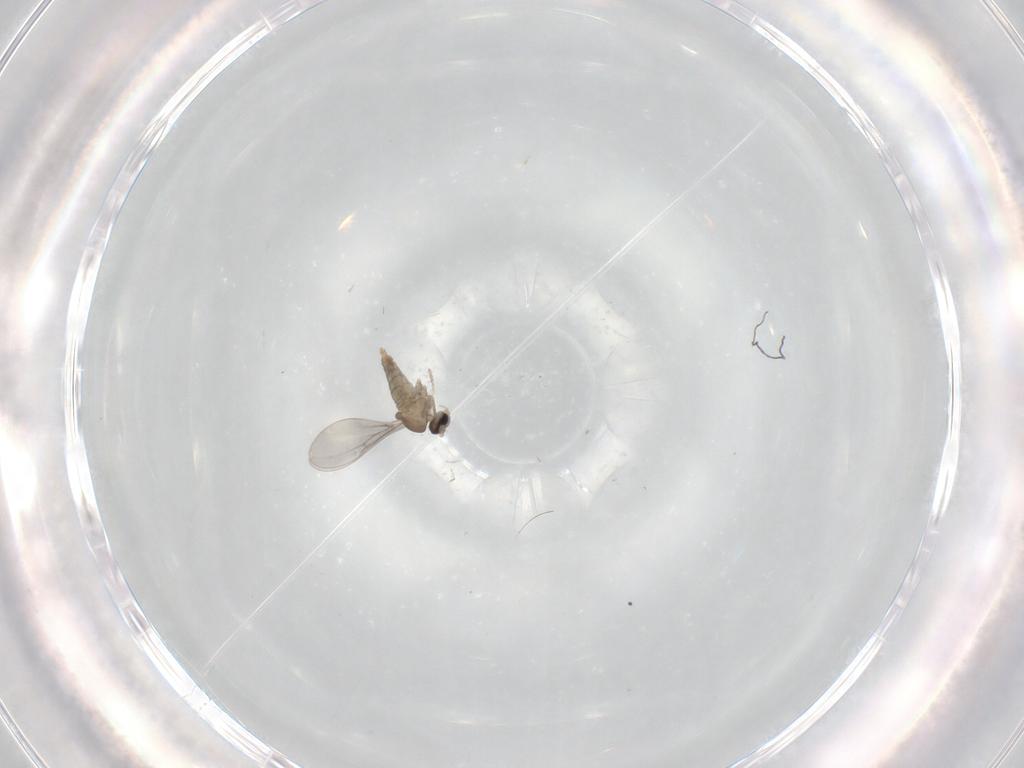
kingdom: Animalia
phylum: Arthropoda
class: Insecta
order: Diptera
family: Cecidomyiidae
